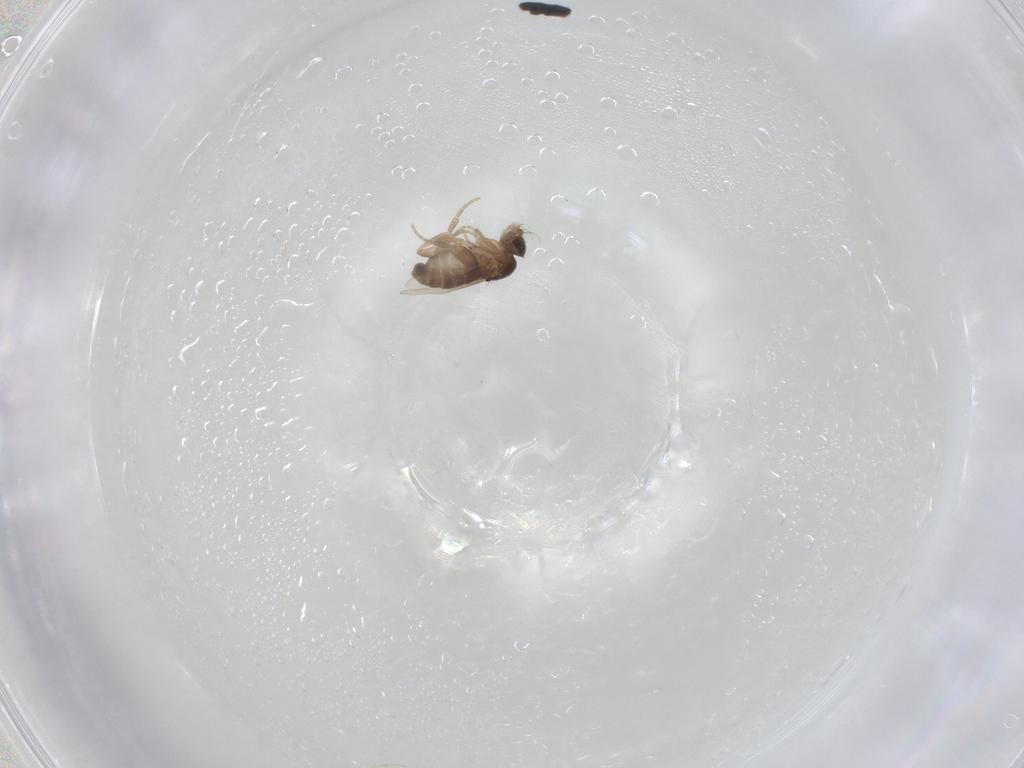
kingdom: Animalia
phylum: Arthropoda
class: Insecta
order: Diptera
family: Phoridae
